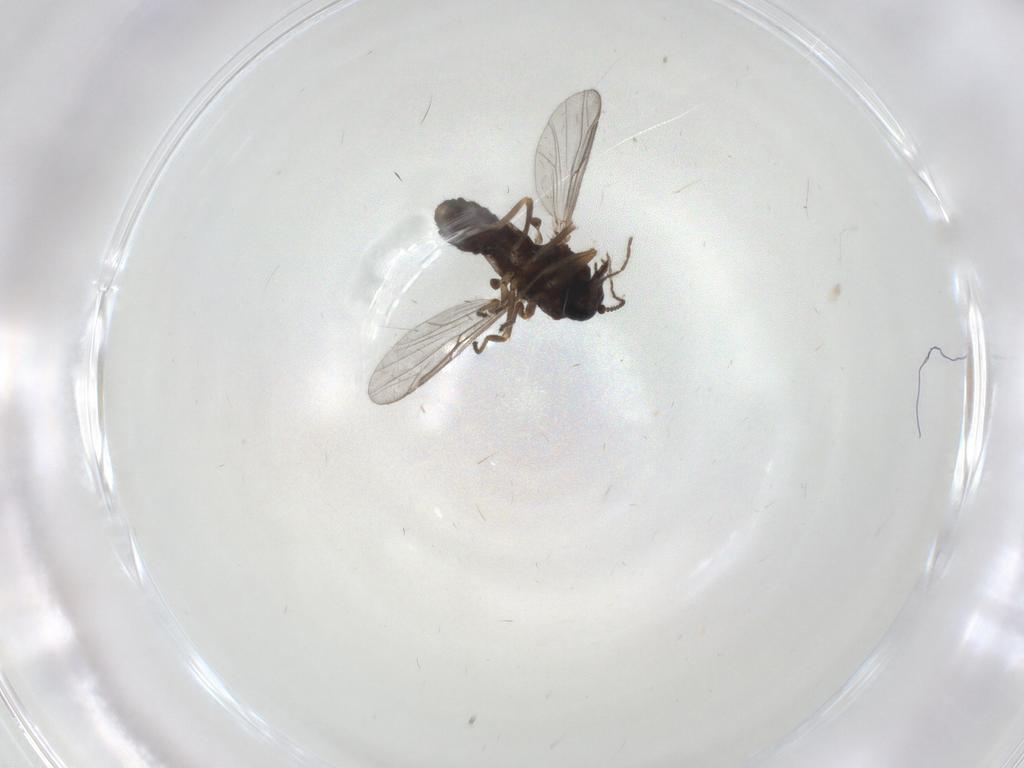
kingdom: Animalia
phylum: Arthropoda
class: Insecta
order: Diptera
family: Ceratopogonidae
